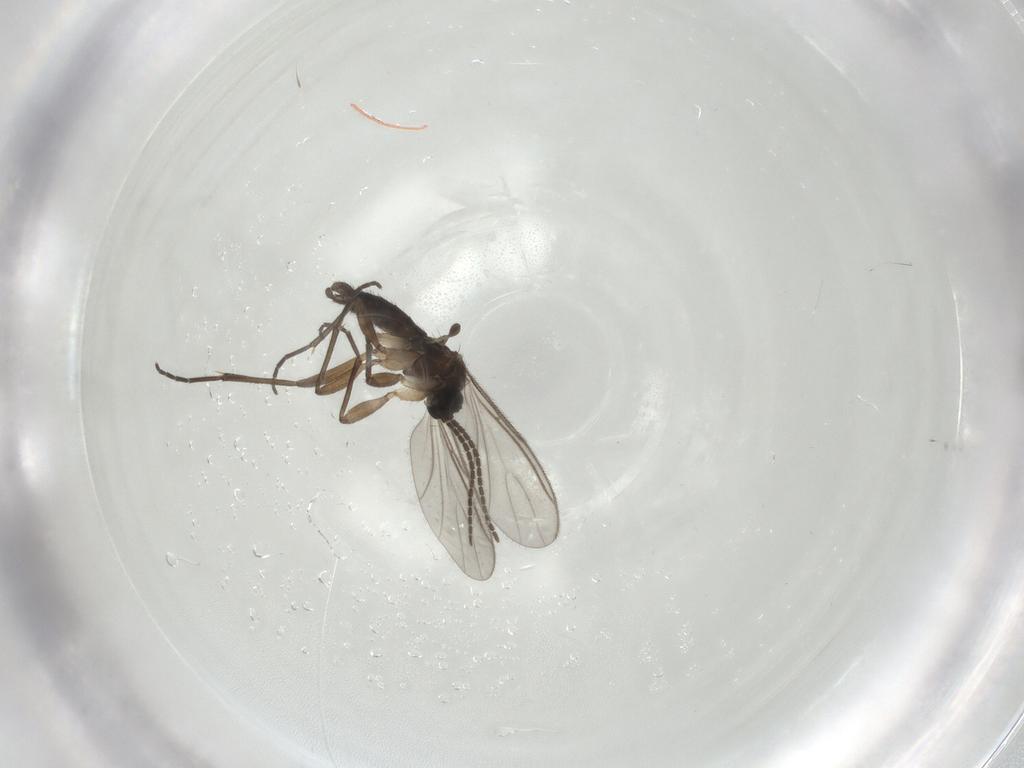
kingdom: Animalia
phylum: Arthropoda
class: Insecta
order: Diptera
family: Sciaridae
